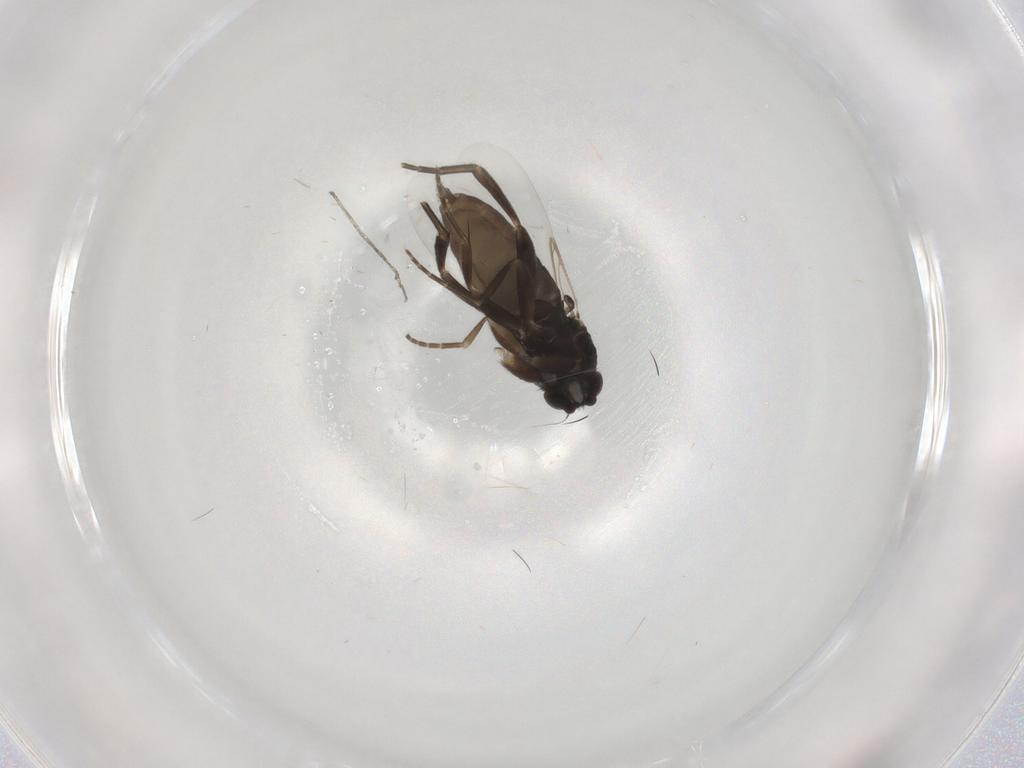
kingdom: Animalia
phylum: Arthropoda
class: Insecta
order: Diptera
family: Phoridae
